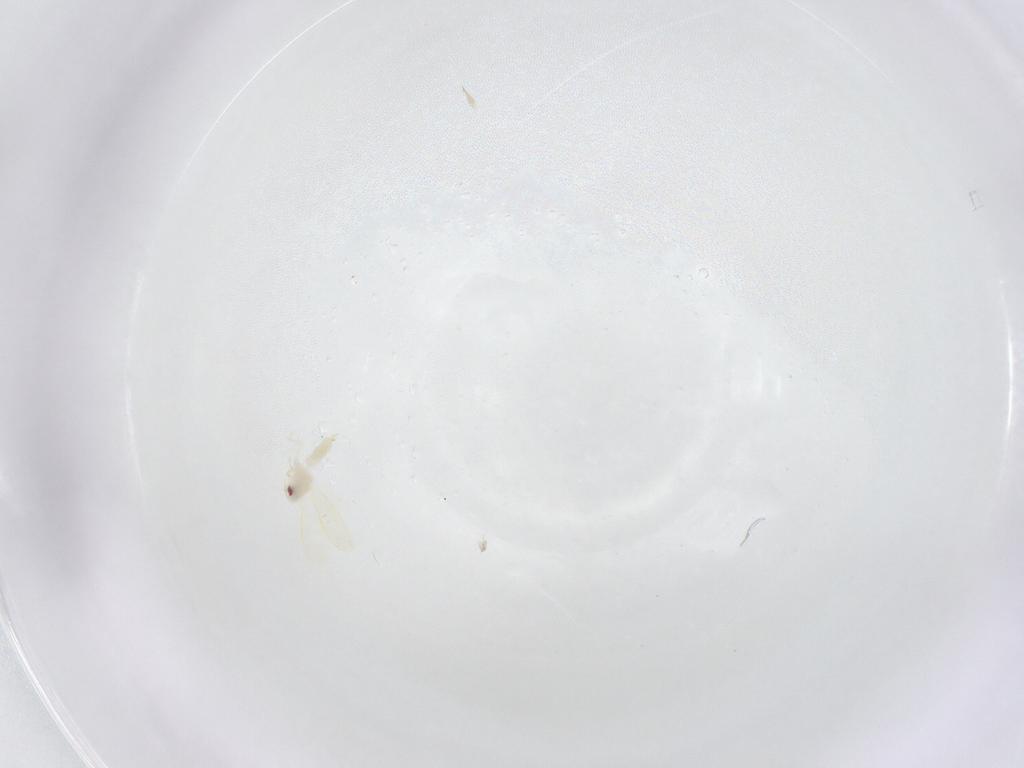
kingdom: Animalia
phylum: Arthropoda
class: Insecta
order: Hemiptera
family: Ceratocombidae
